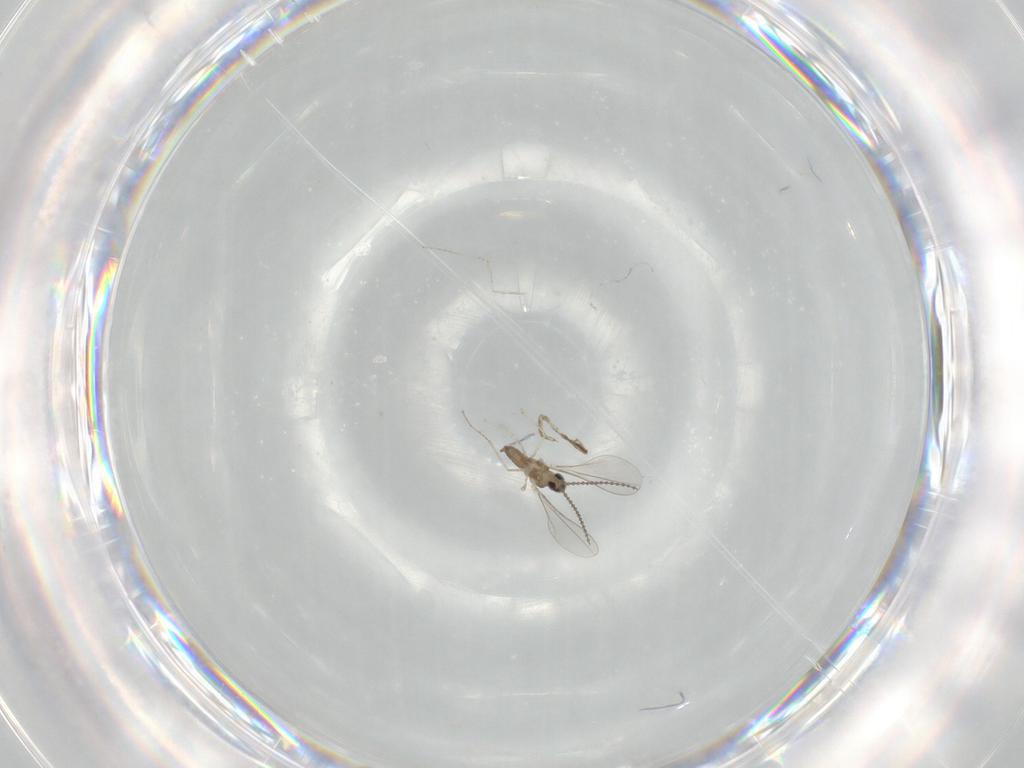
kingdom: Animalia
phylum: Arthropoda
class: Insecta
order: Diptera
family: Cecidomyiidae
